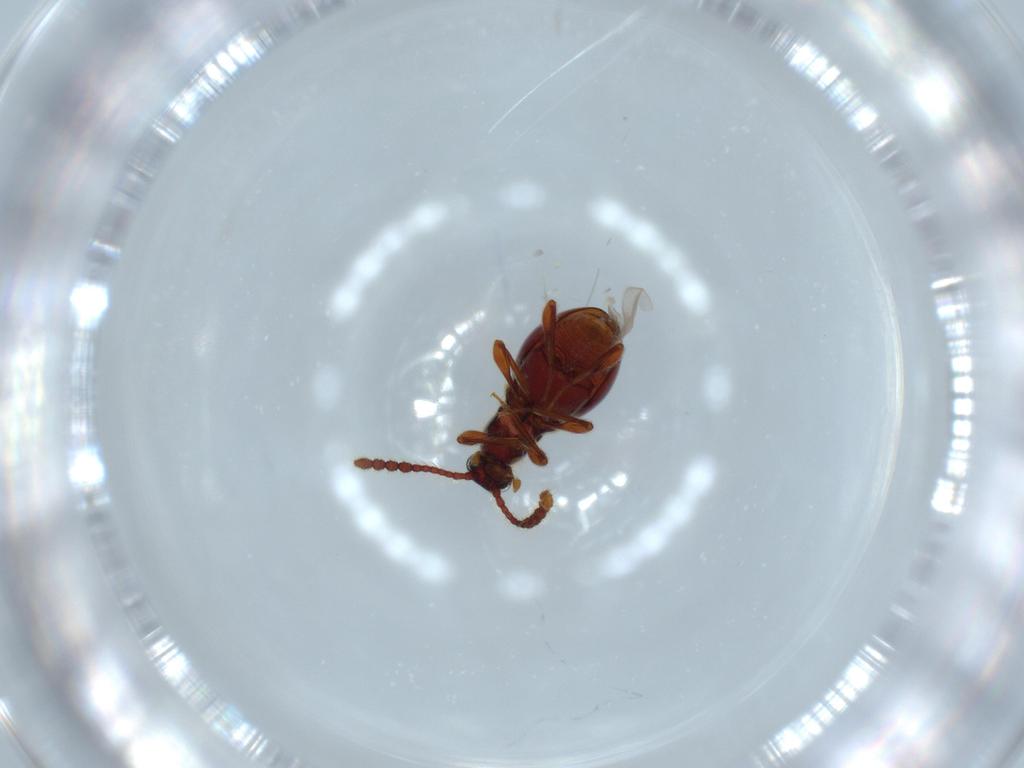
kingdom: Animalia
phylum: Arthropoda
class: Insecta
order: Coleoptera
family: Staphylinidae
